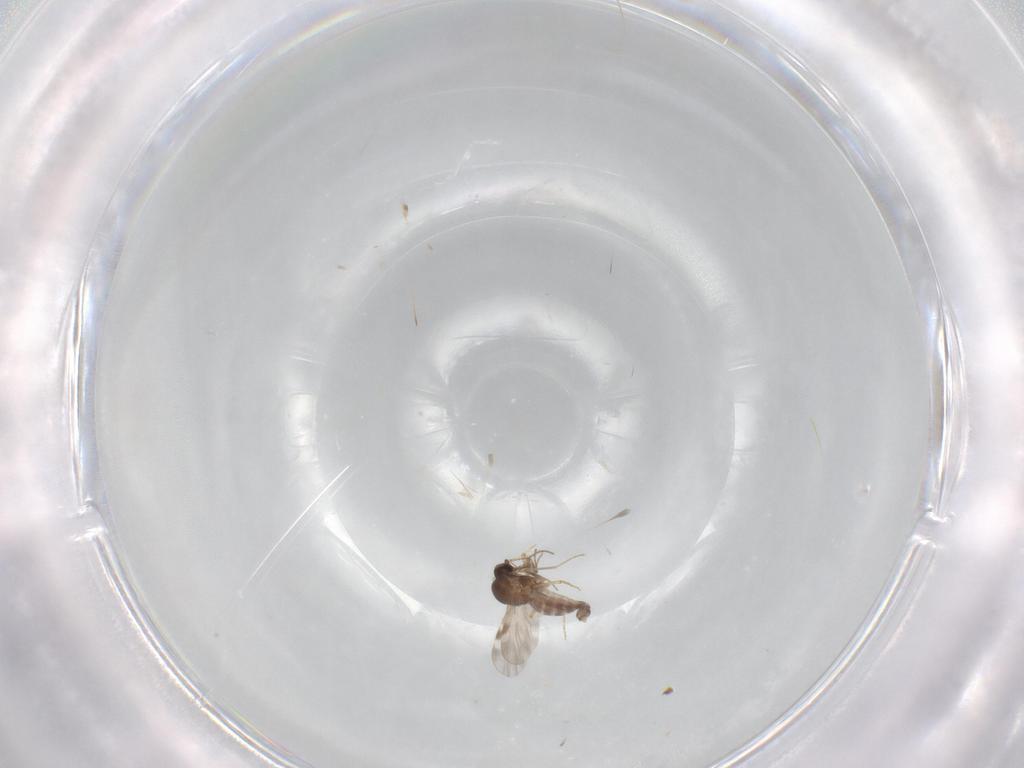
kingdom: Animalia
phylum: Arthropoda
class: Insecta
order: Diptera
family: Ceratopogonidae
